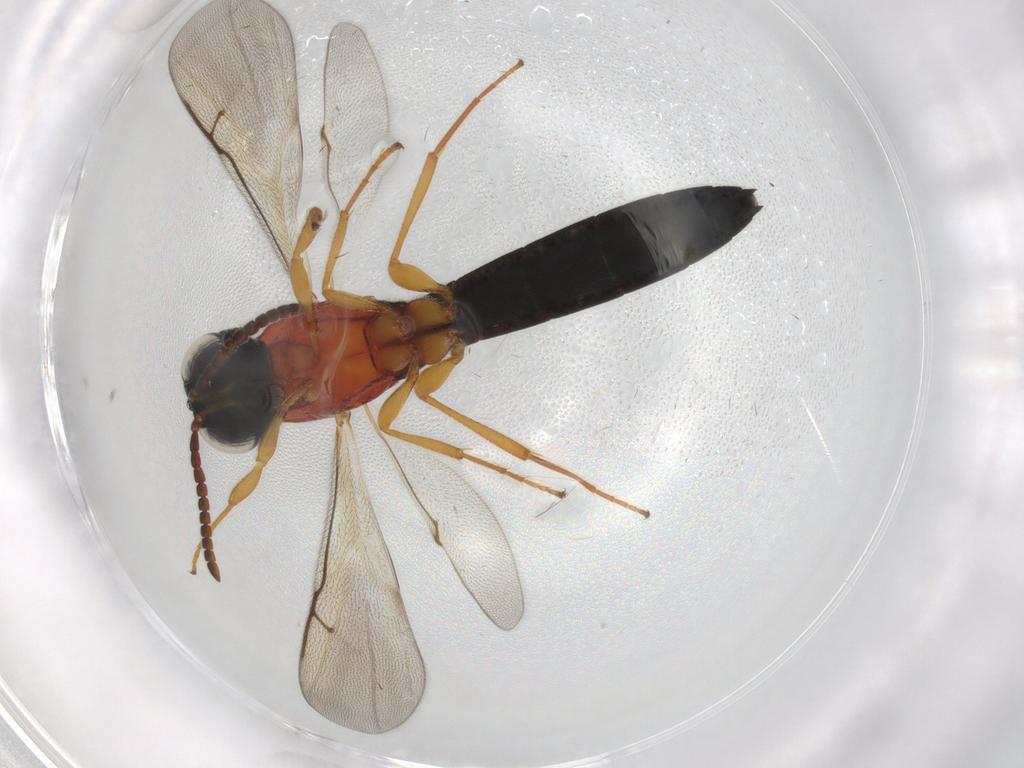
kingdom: Animalia
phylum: Arthropoda
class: Insecta
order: Hymenoptera
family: Scelionidae
